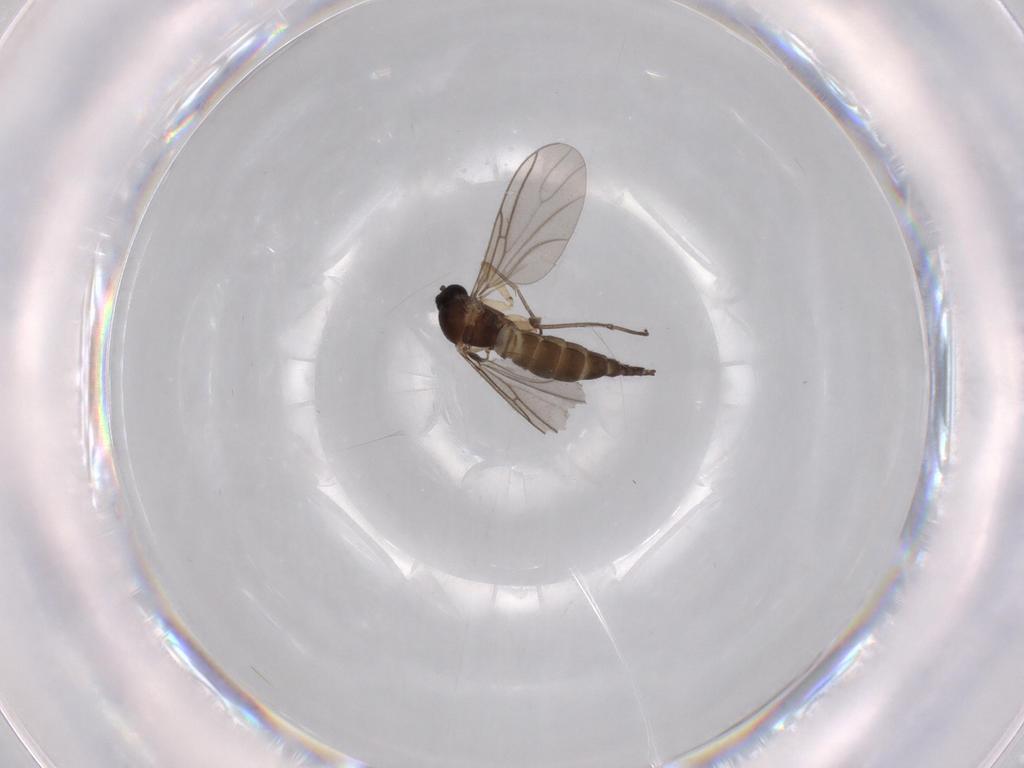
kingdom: Animalia
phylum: Arthropoda
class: Insecta
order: Diptera
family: Sciaridae
